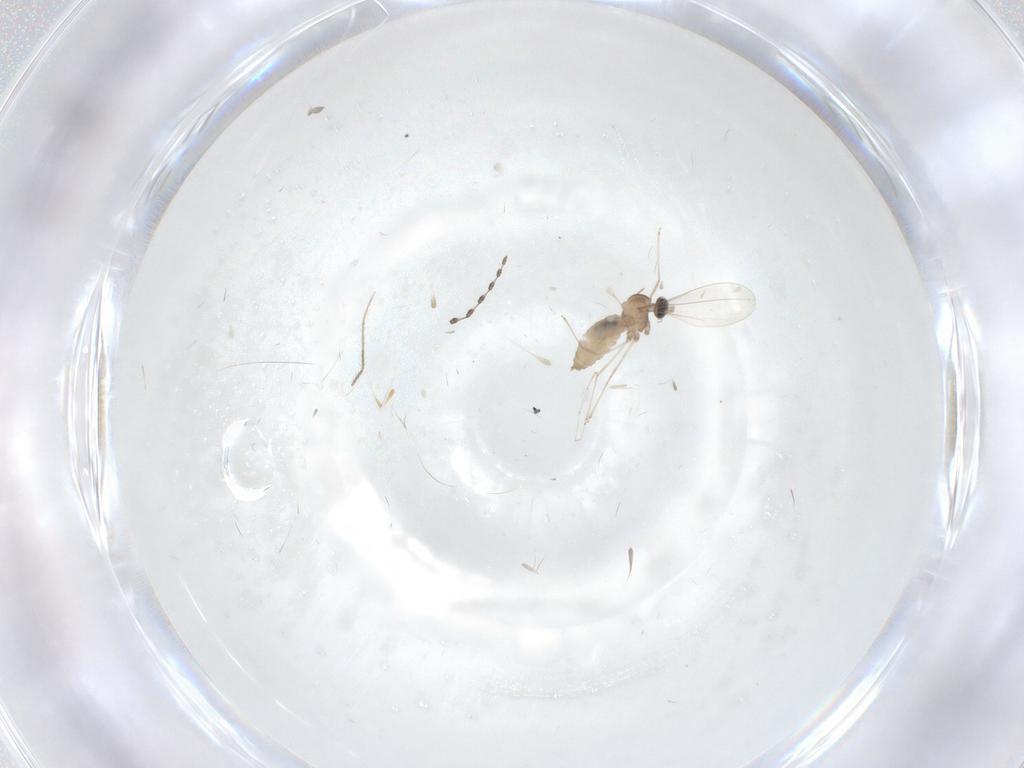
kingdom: Animalia
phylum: Arthropoda
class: Insecta
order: Diptera
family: Cecidomyiidae
